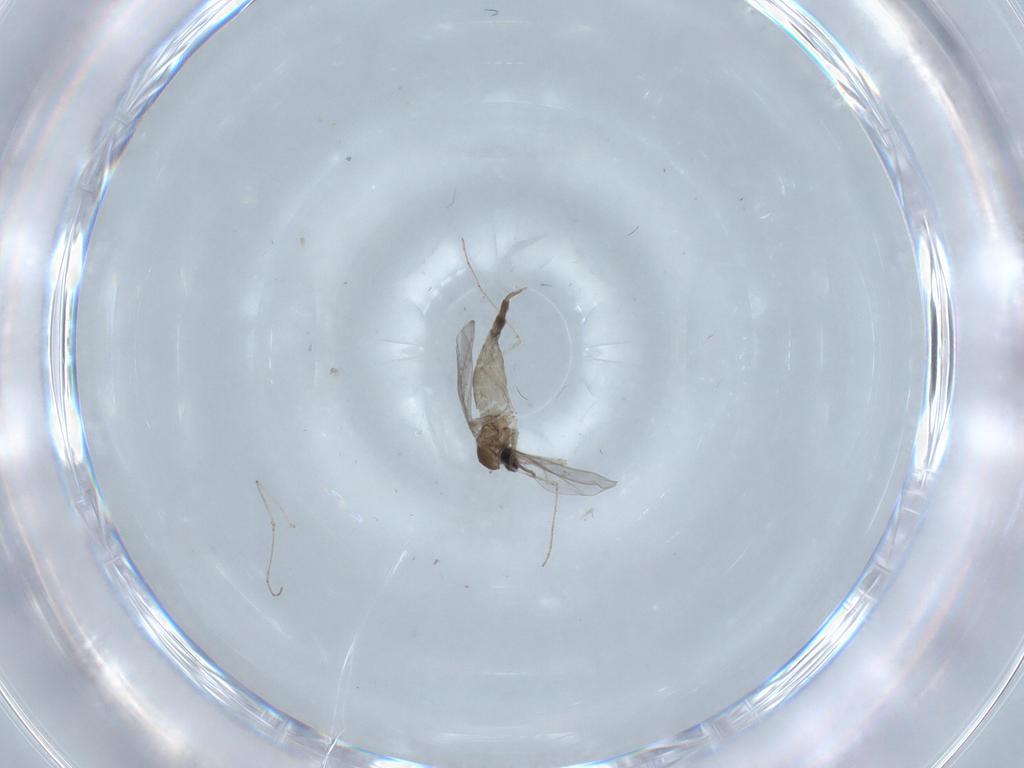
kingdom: Animalia
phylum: Arthropoda
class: Insecta
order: Diptera
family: Cecidomyiidae
